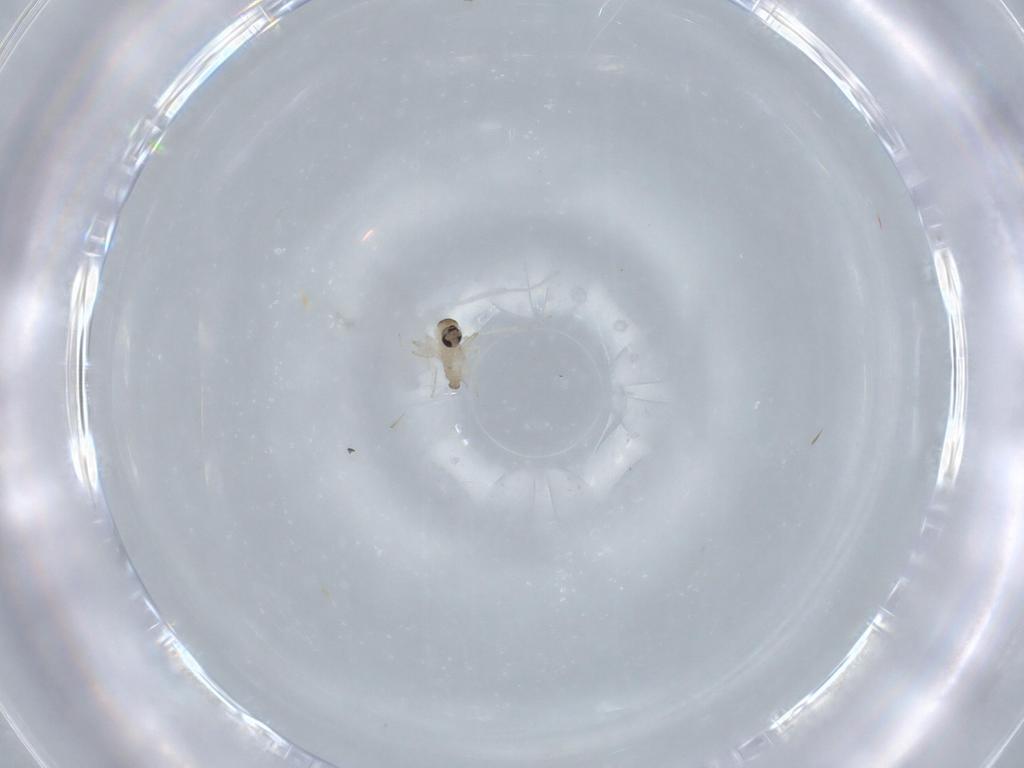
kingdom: Animalia
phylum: Arthropoda
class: Insecta
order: Diptera
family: Cecidomyiidae
